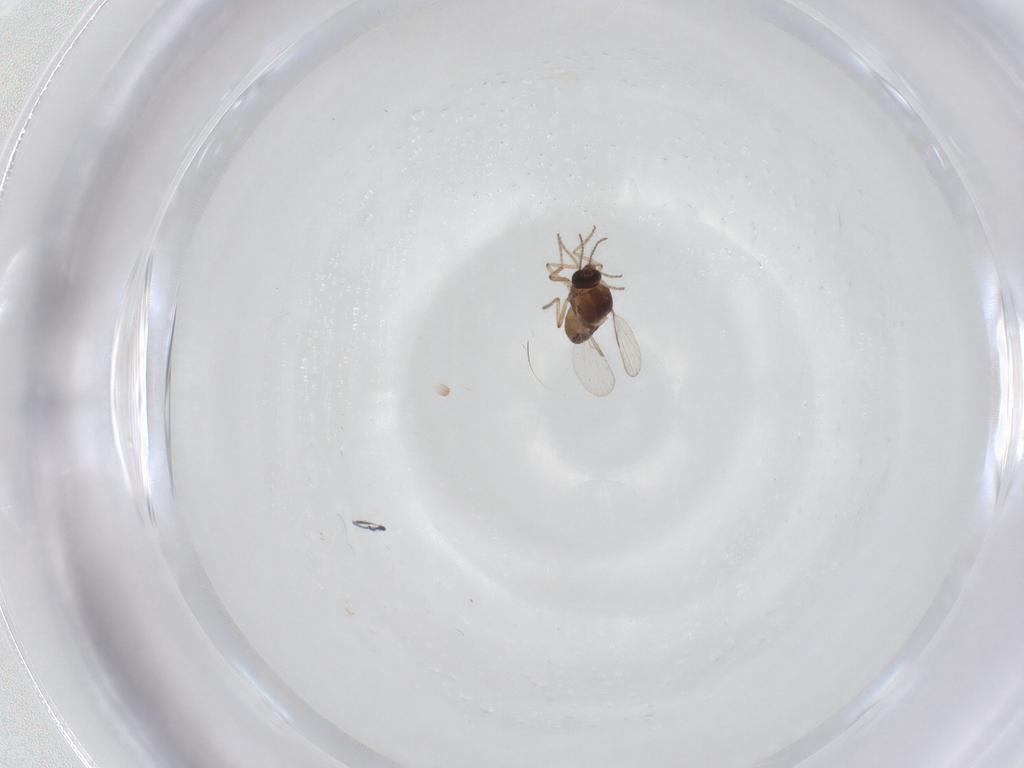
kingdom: Animalia
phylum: Arthropoda
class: Insecta
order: Diptera
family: Ceratopogonidae
